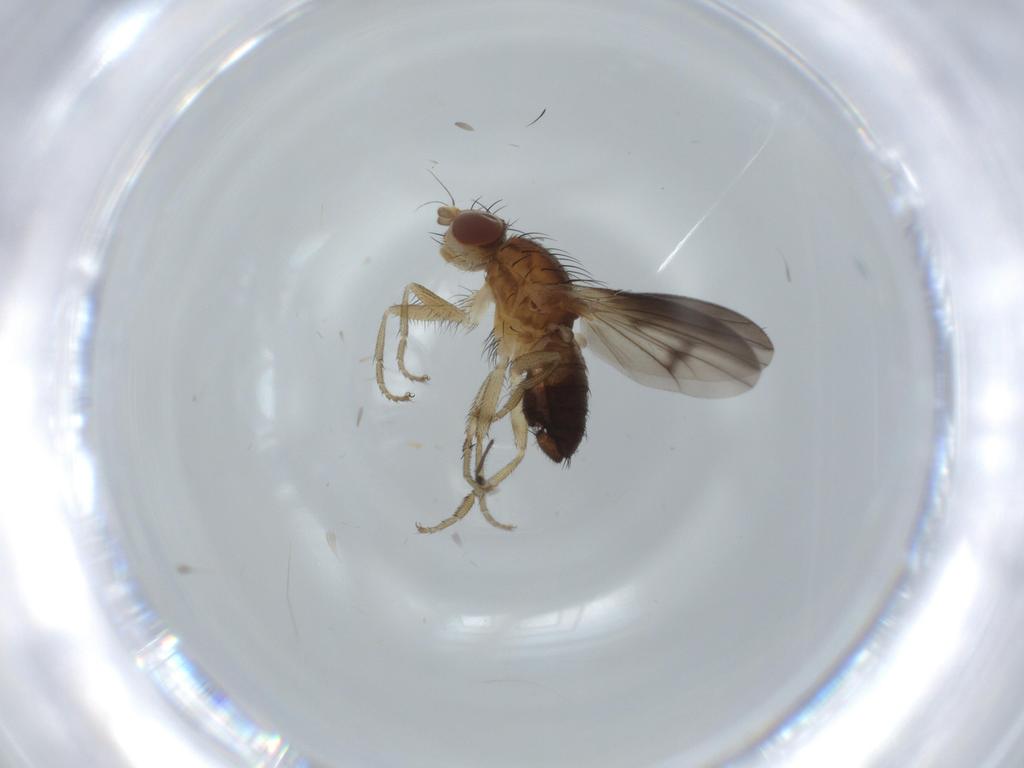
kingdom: Animalia
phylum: Arthropoda
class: Insecta
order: Diptera
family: Heleomyzidae
